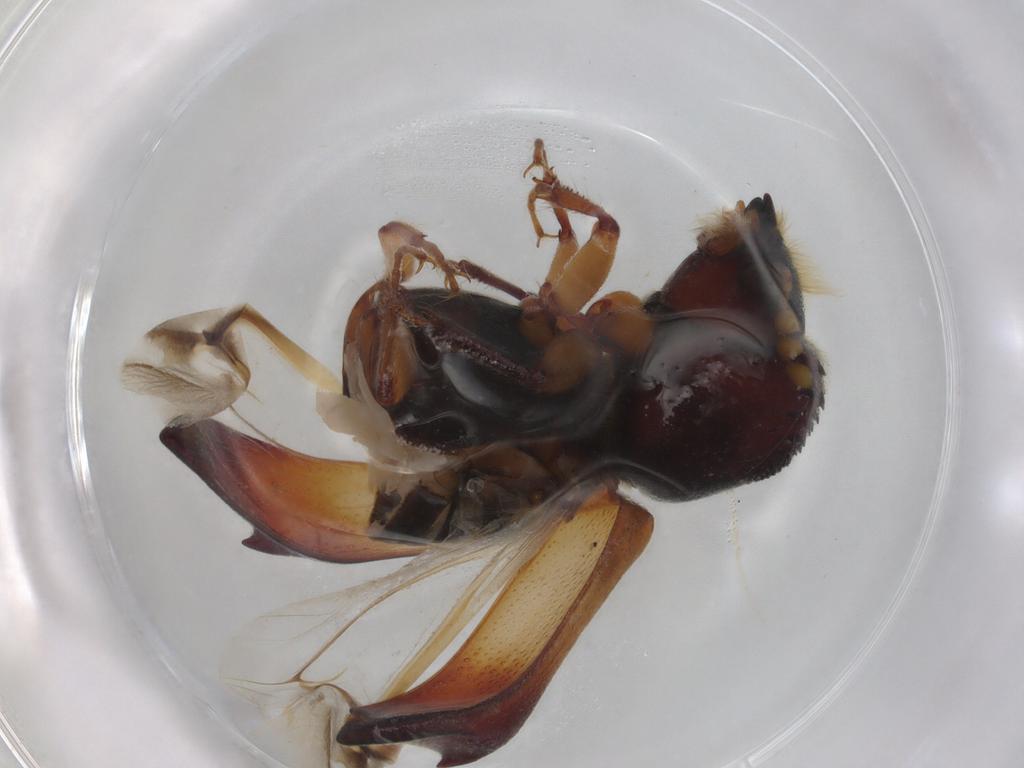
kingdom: Animalia
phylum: Arthropoda
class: Insecta
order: Coleoptera
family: Bostrichidae
